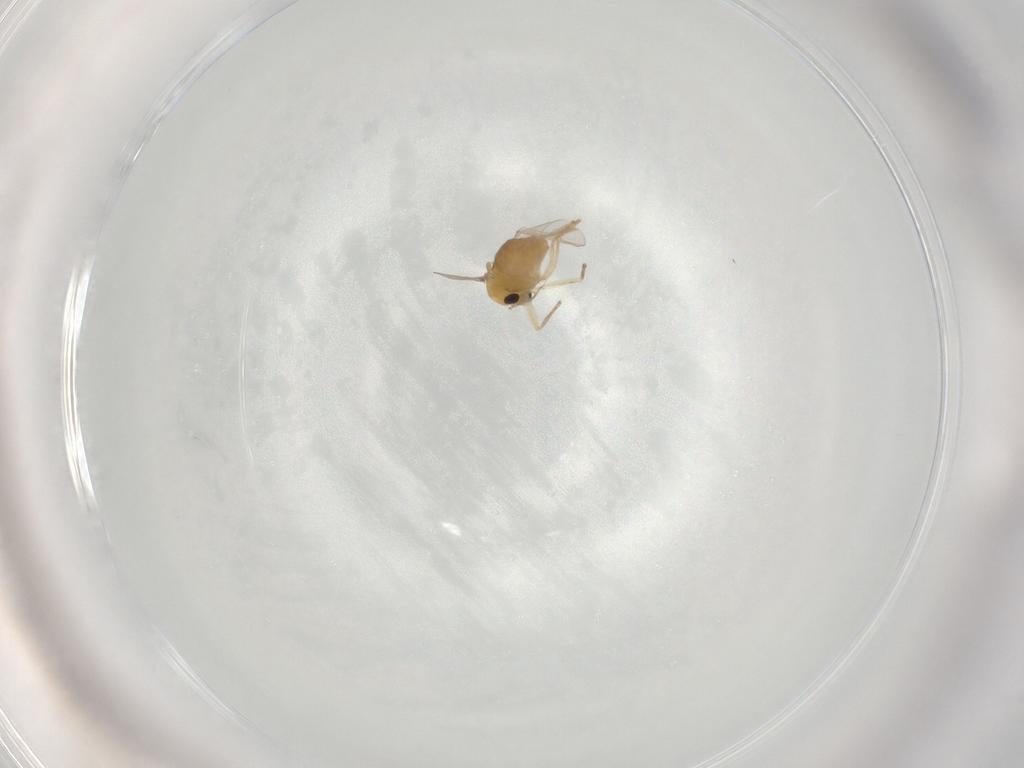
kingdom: Animalia
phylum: Arthropoda
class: Insecta
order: Diptera
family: Chironomidae
